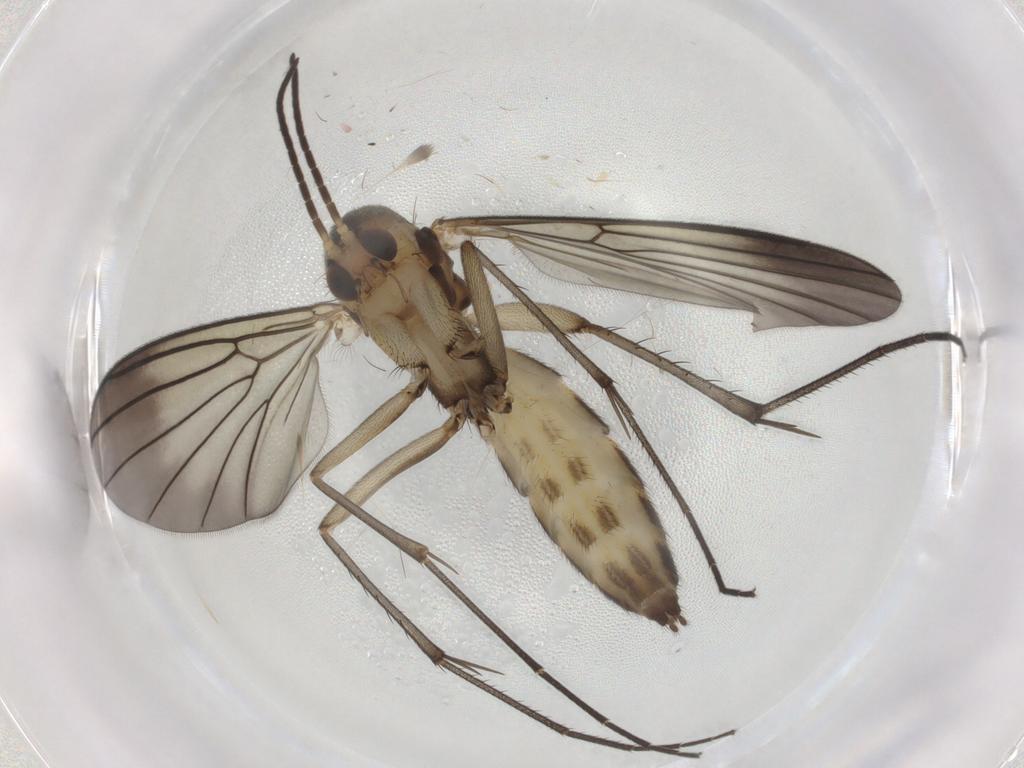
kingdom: Animalia
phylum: Arthropoda
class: Insecta
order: Diptera
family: Mycetophilidae
